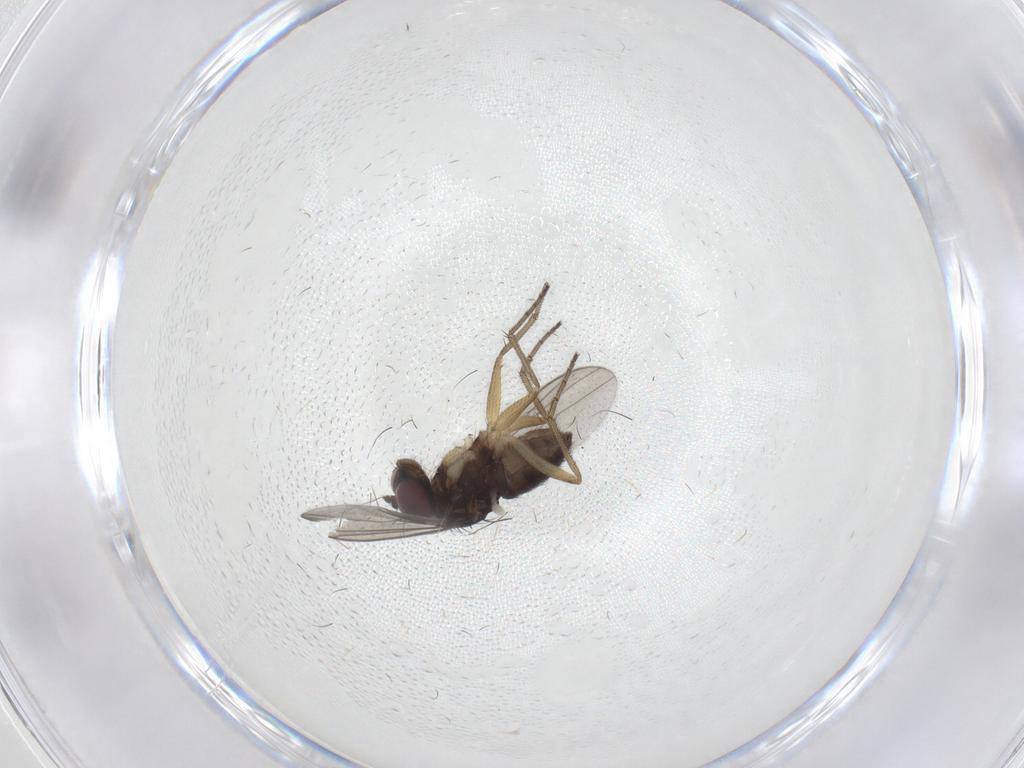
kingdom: Animalia
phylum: Arthropoda
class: Insecta
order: Diptera
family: Dolichopodidae
